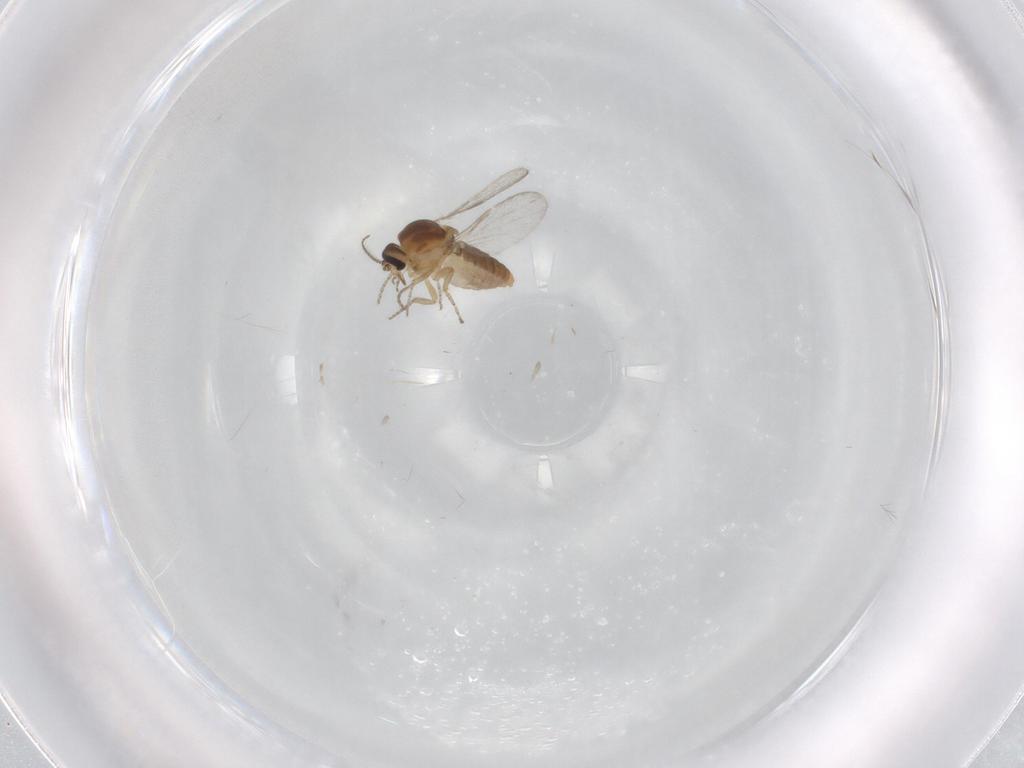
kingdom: Animalia
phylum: Arthropoda
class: Insecta
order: Diptera
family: Ceratopogonidae
